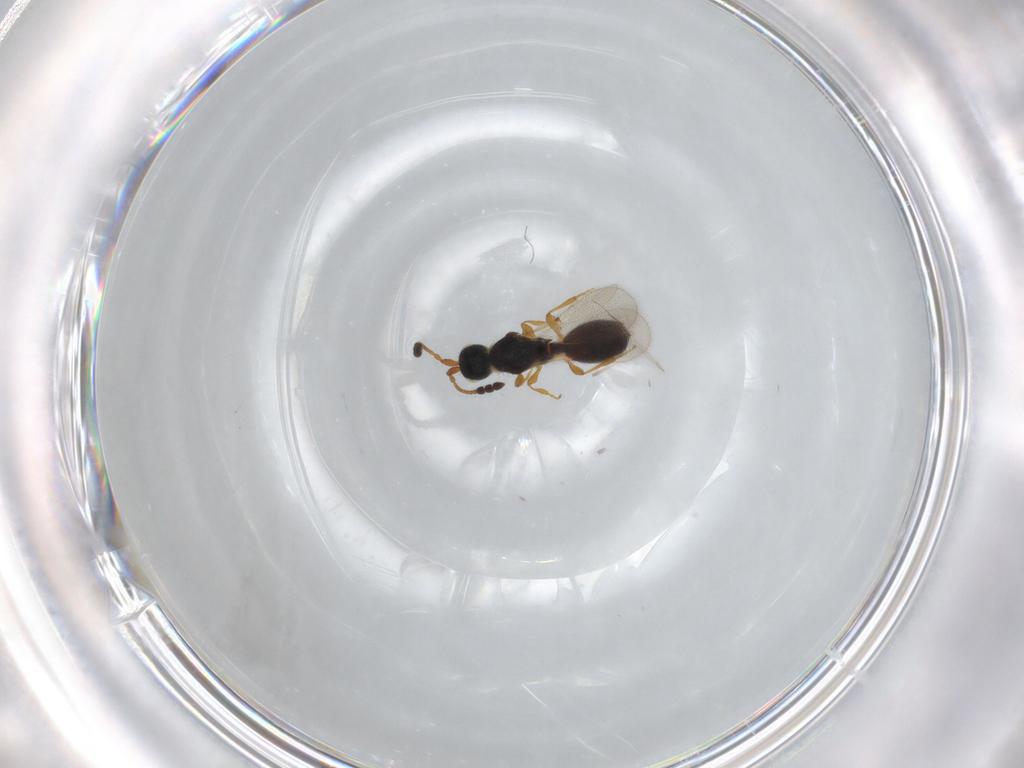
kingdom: Animalia
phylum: Arthropoda
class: Insecta
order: Hymenoptera
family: Diapriidae
